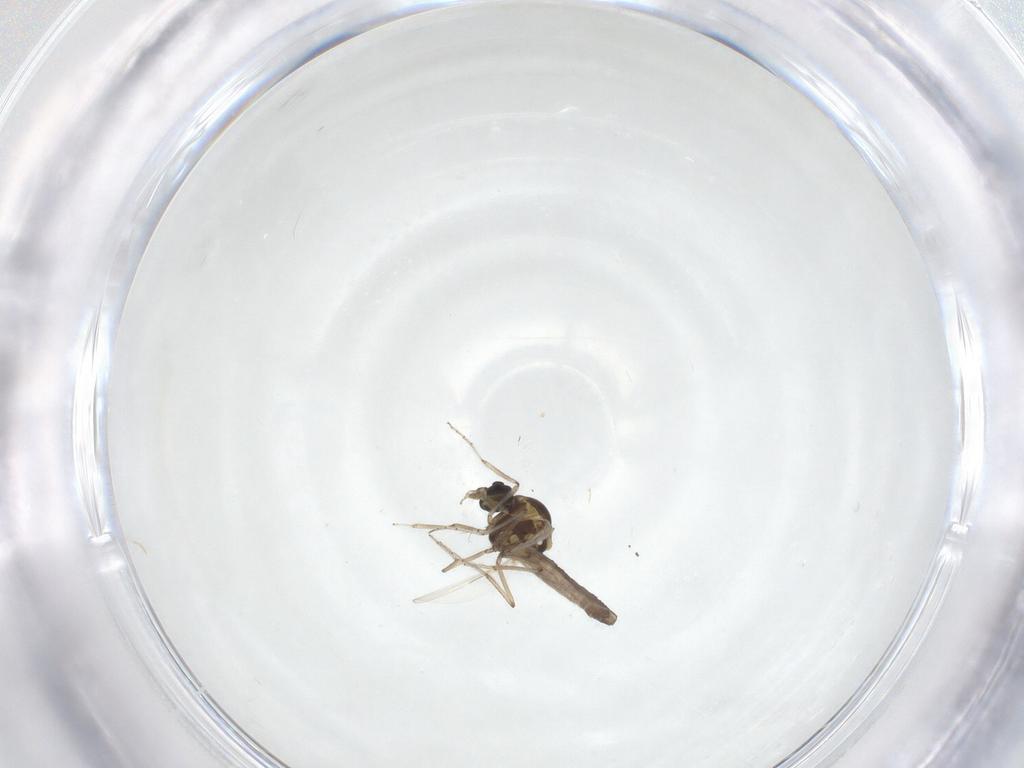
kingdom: Animalia
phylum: Arthropoda
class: Insecta
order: Diptera
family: Ceratopogonidae
